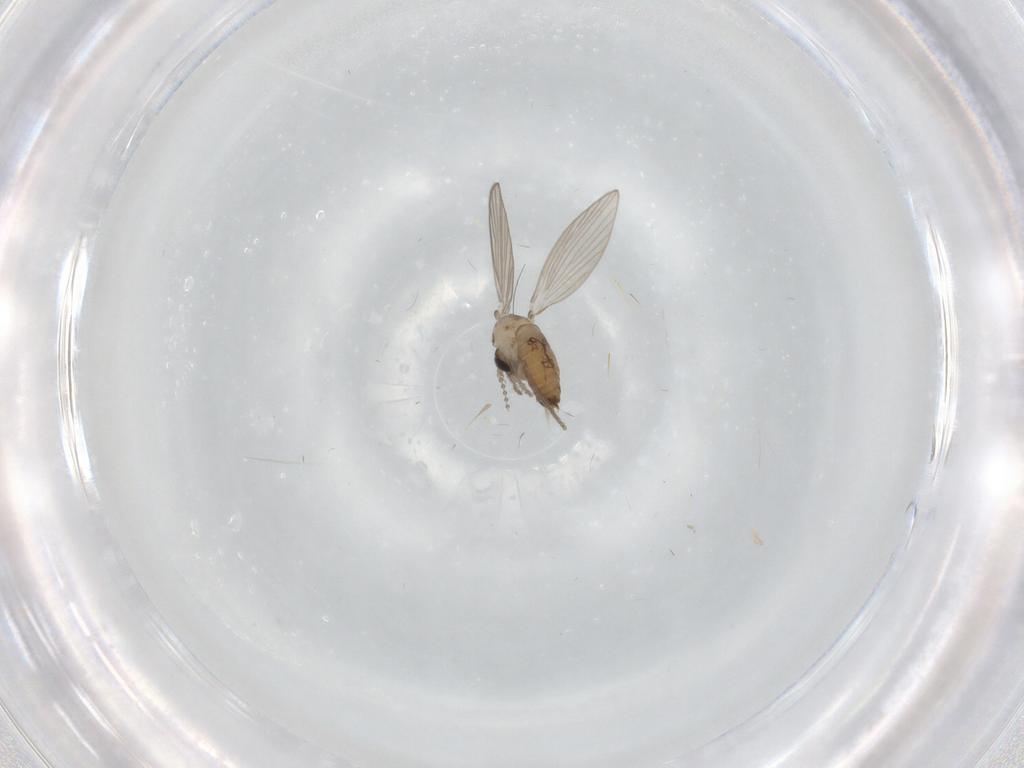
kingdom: Animalia
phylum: Arthropoda
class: Insecta
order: Diptera
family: Psychodidae
